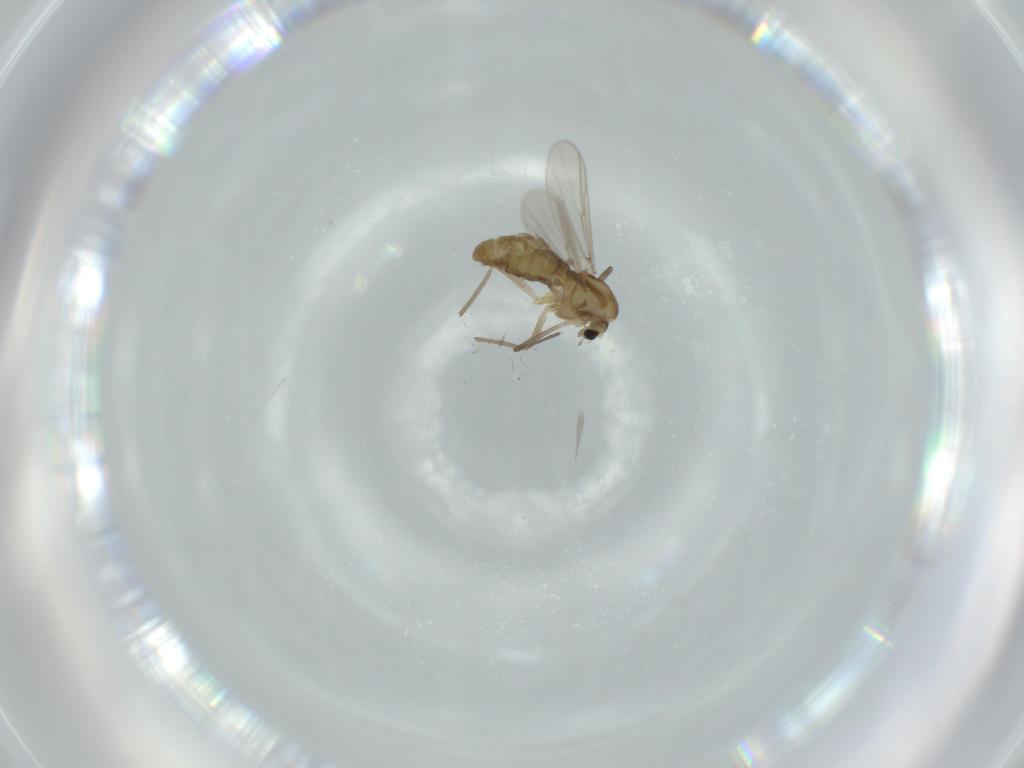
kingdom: Animalia
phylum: Arthropoda
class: Insecta
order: Diptera
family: Chironomidae
